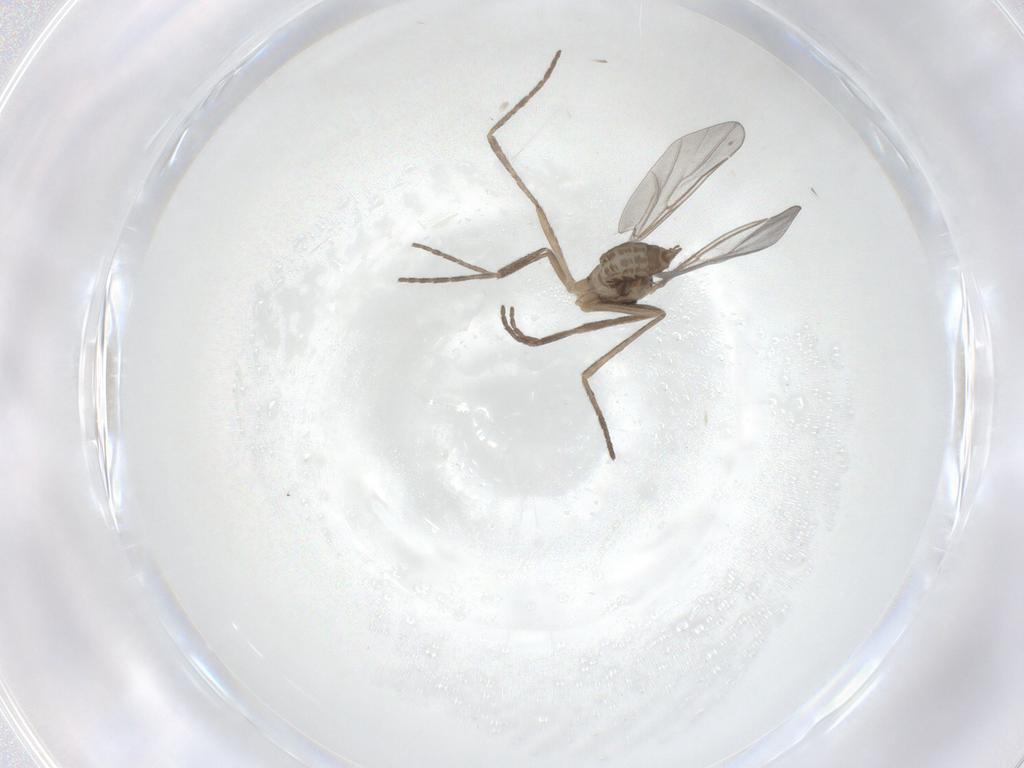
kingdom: Animalia
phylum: Arthropoda
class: Insecta
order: Diptera
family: Cecidomyiidae
